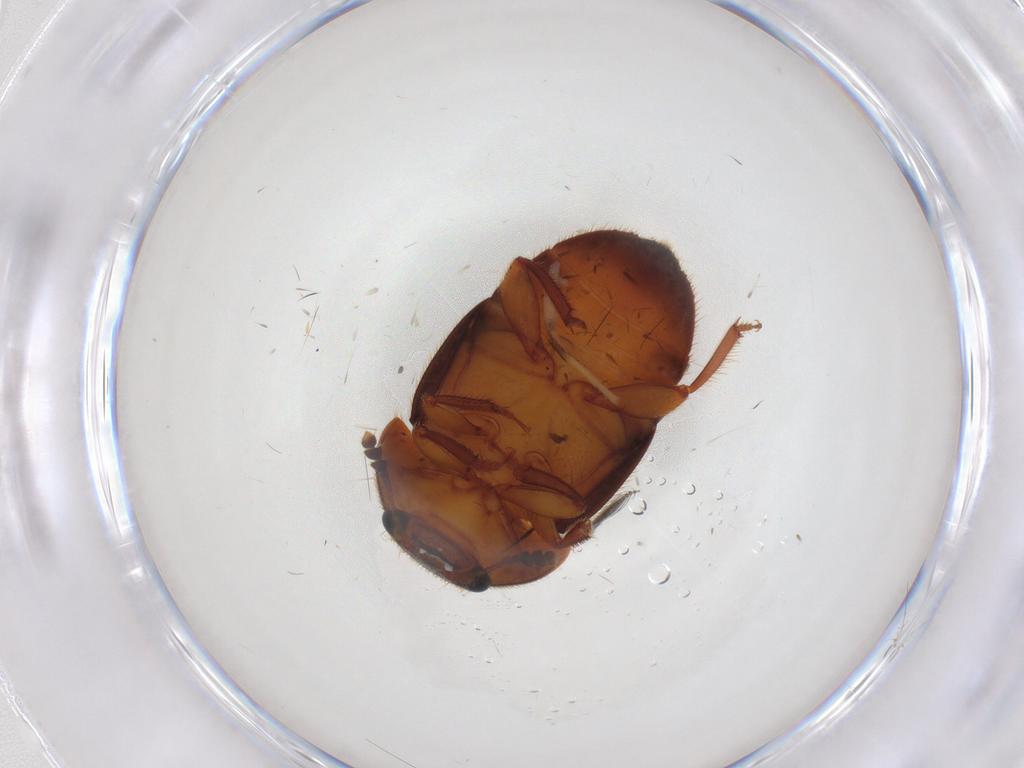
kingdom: Animalia
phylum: Arthropoda
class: Insecta
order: Coleoptera
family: Nitidulidae
